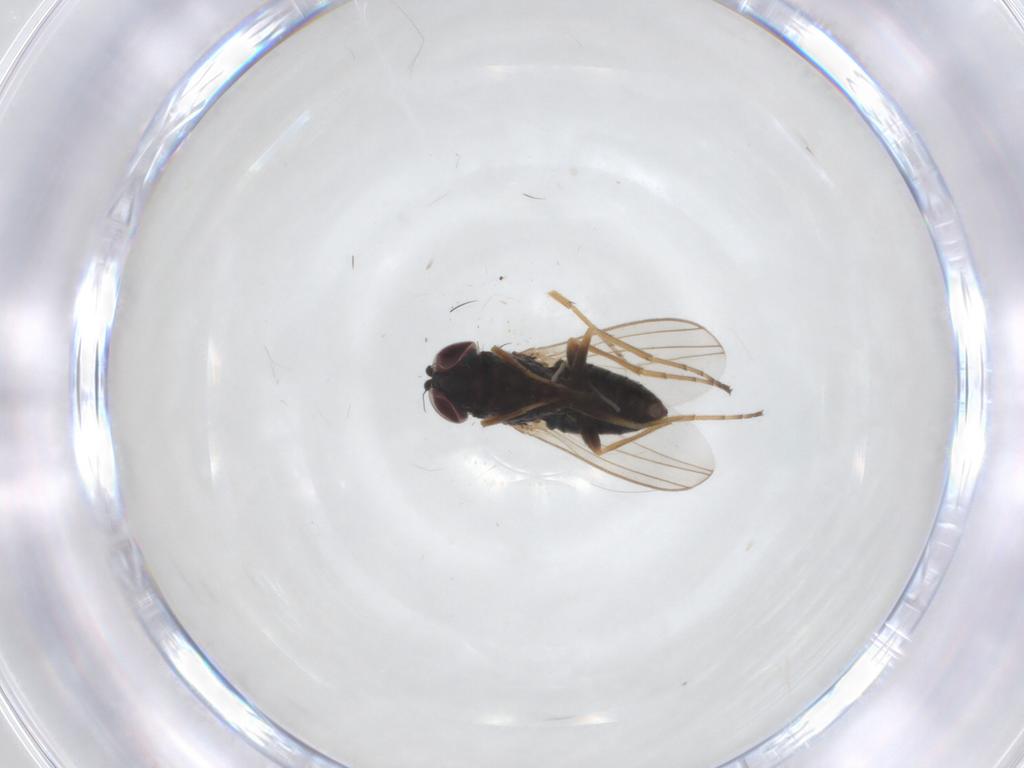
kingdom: Animalia
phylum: Arthropoda
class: Insecta
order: Diptera
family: Dolichopodidae
